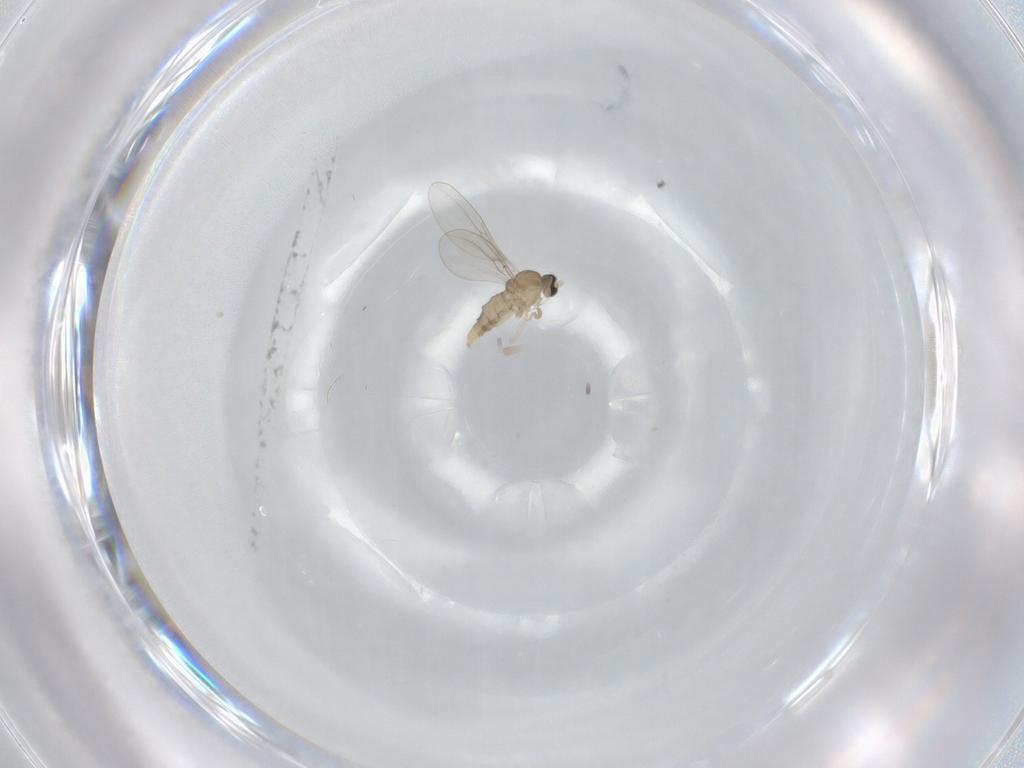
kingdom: Animalia
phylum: Arthropoda
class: Insecta
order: Diptera
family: Cecidomyiidae
